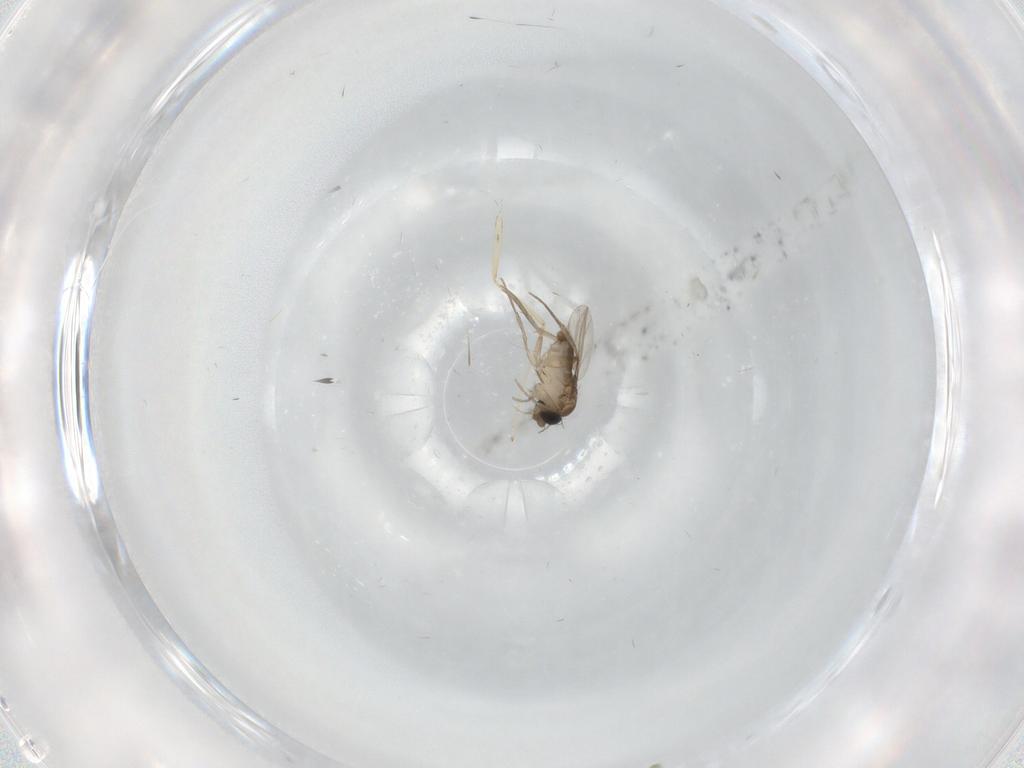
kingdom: Animalia
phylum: Arthropoda
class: Insecta
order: Diptera
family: Phoridae
